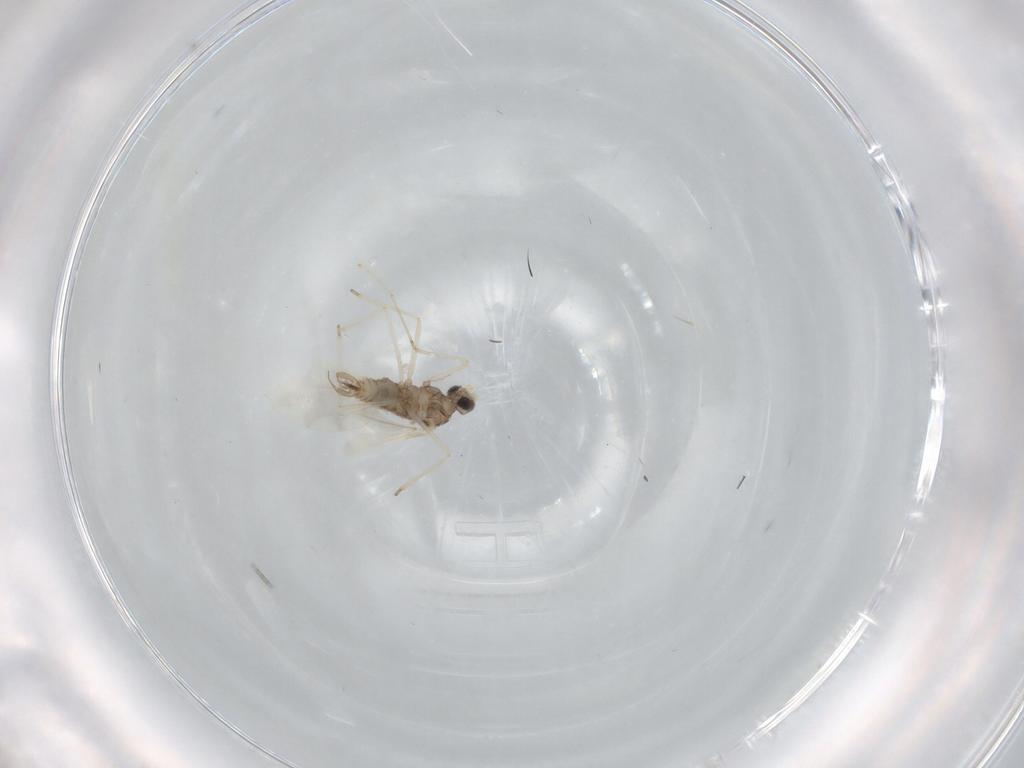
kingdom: Animalia
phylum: Arthropoda
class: Insecta
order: Diptera
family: Cecidomyiidae
